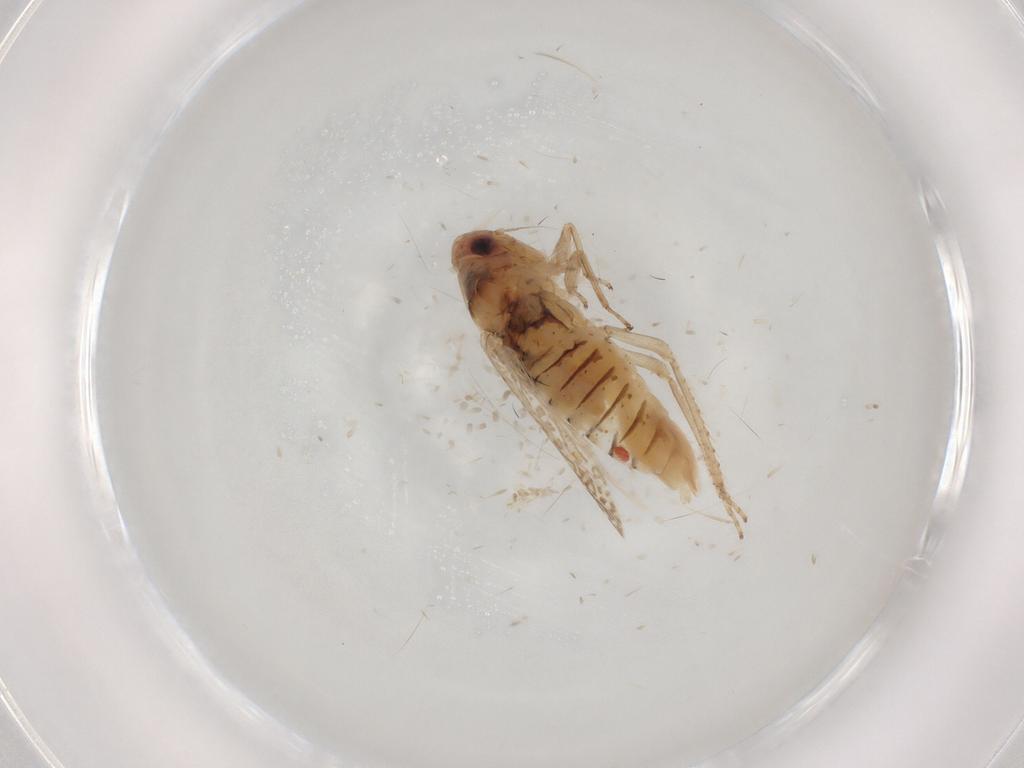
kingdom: Animalia
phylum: Arthropoda
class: Insecta
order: Hemiptera
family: Cicadellidae
